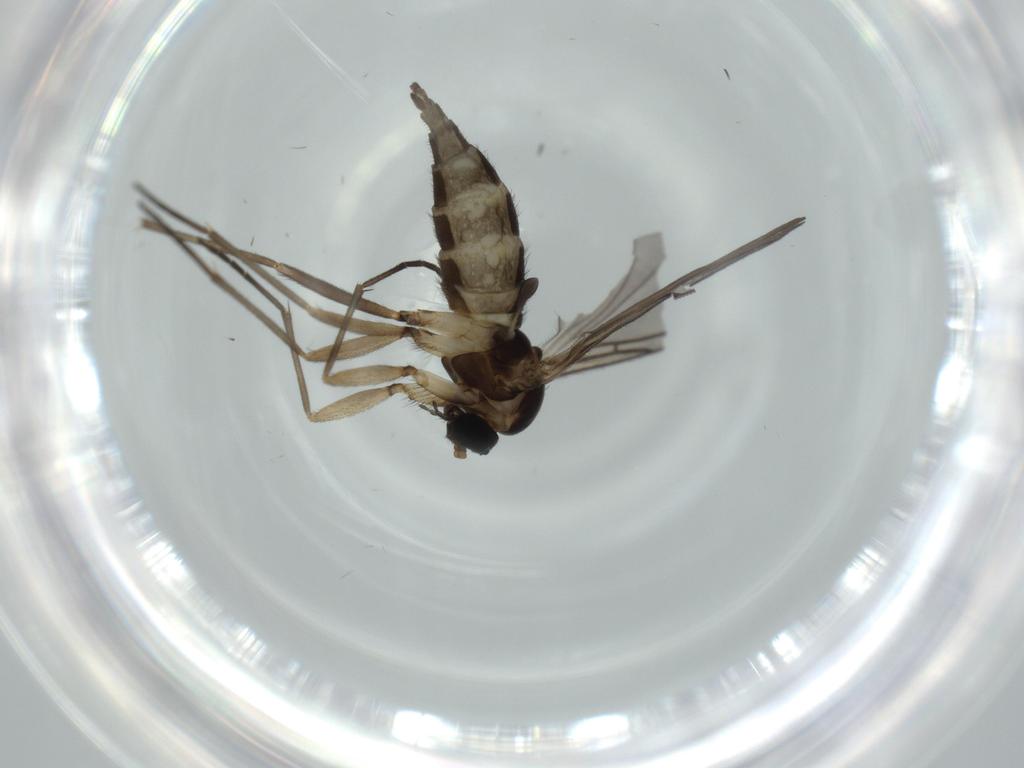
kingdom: Animalia
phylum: Arthropoda
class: Insecta
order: Diptera
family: Sciaridae
